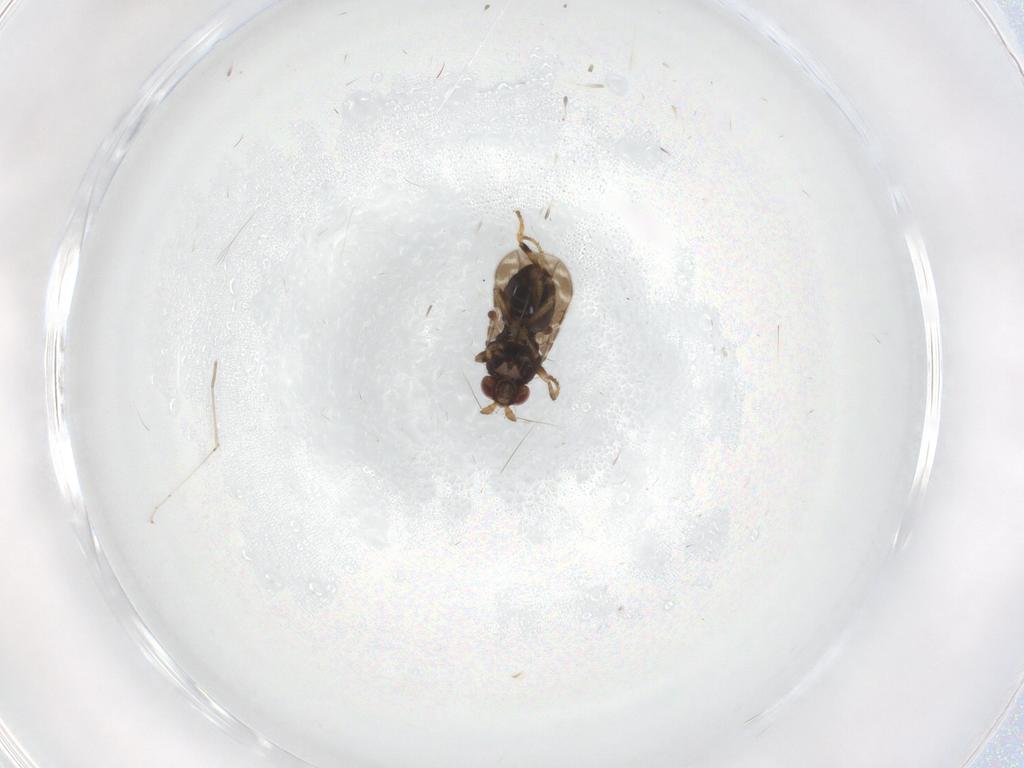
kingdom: Animalia
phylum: Arthropoda
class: Insecta
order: Diptera
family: Sphaeroceridae
